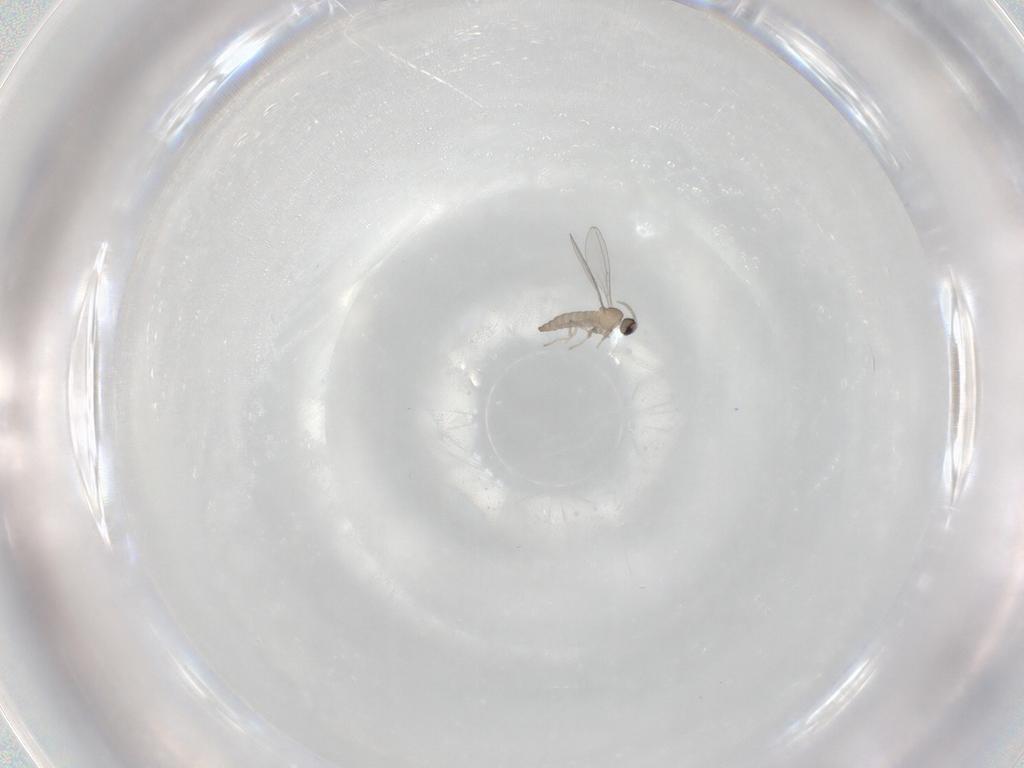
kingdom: Animalia
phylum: Arthropoda
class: Insecta
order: Diptera
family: Cecidomyiidae
